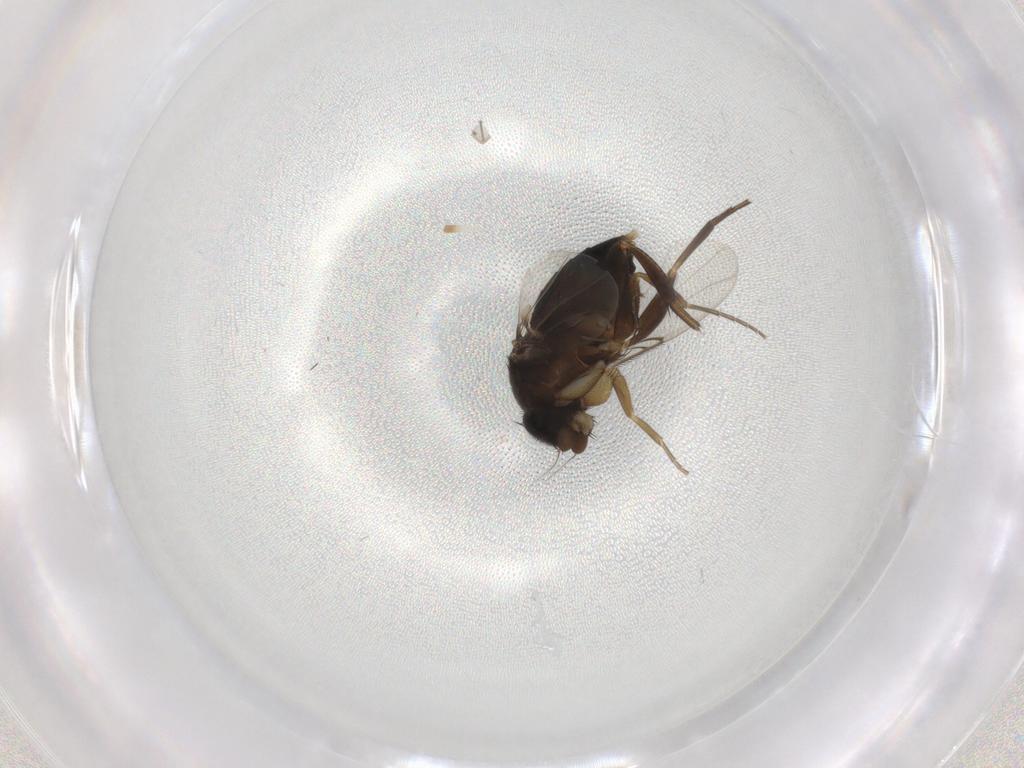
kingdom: Animalia
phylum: Arthropoda
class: Insecta
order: Diptera
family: Phoridae
